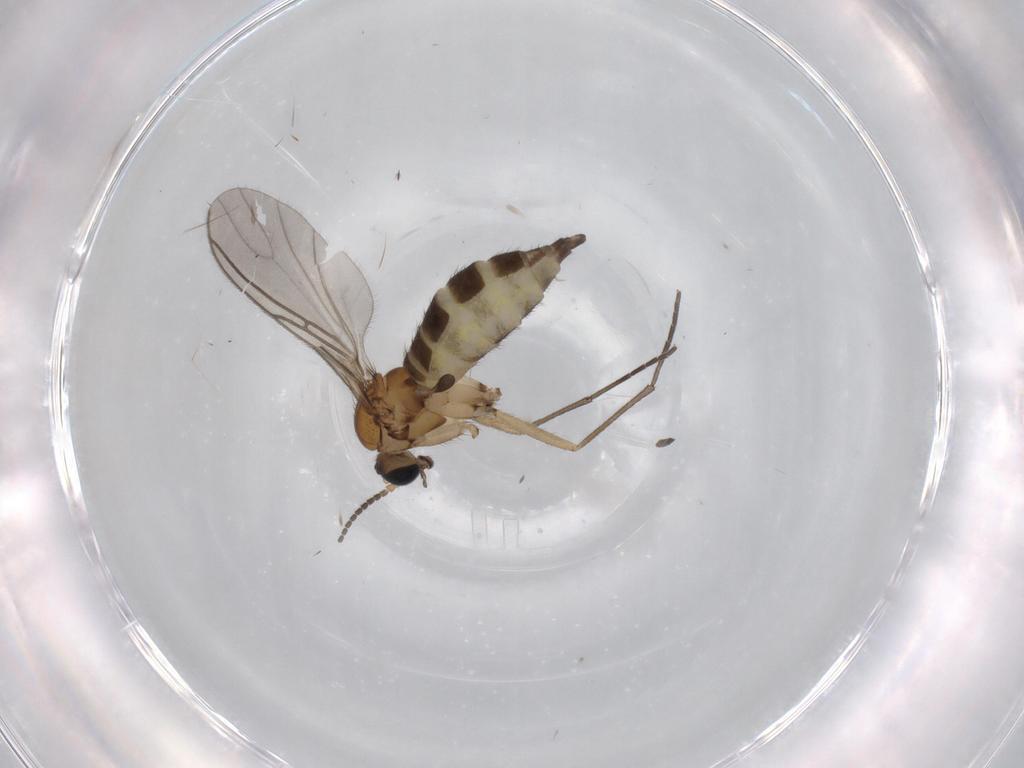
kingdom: Animalia
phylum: Arthropoda
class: Insecta
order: Diptera
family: Sciaridae
